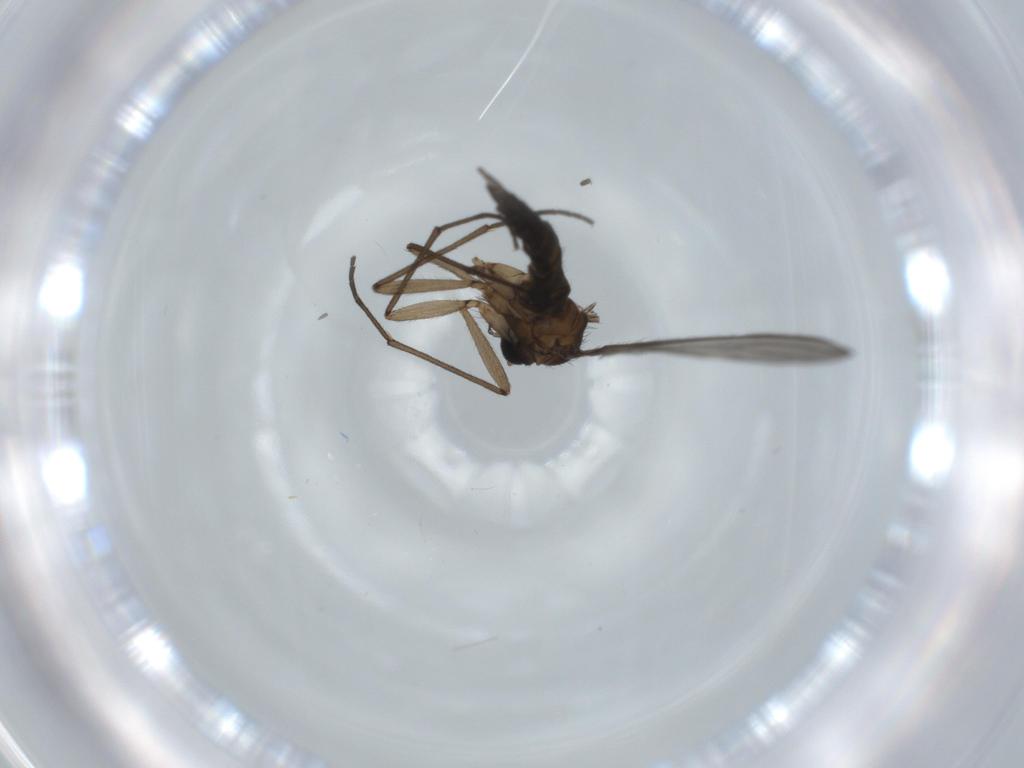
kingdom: Animalia
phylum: Arthropoda
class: Insecta
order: Diptera
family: Sciaridae
